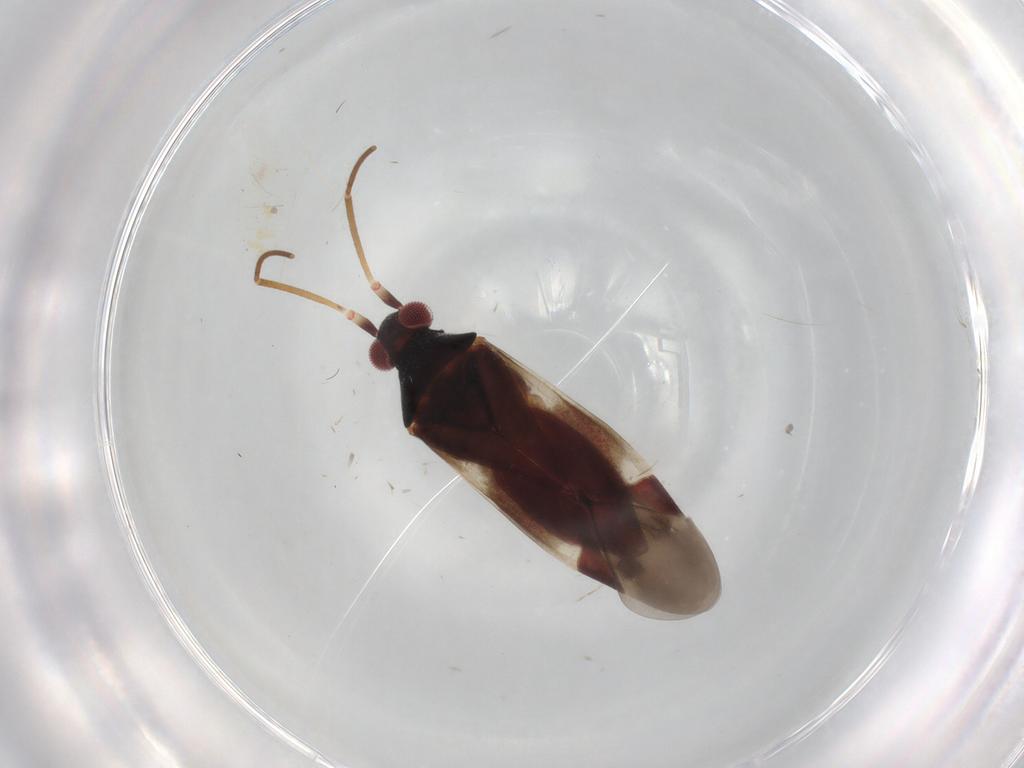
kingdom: Animalia
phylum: Arthropoda
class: Insecta
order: Hemiptera
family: Miridae
